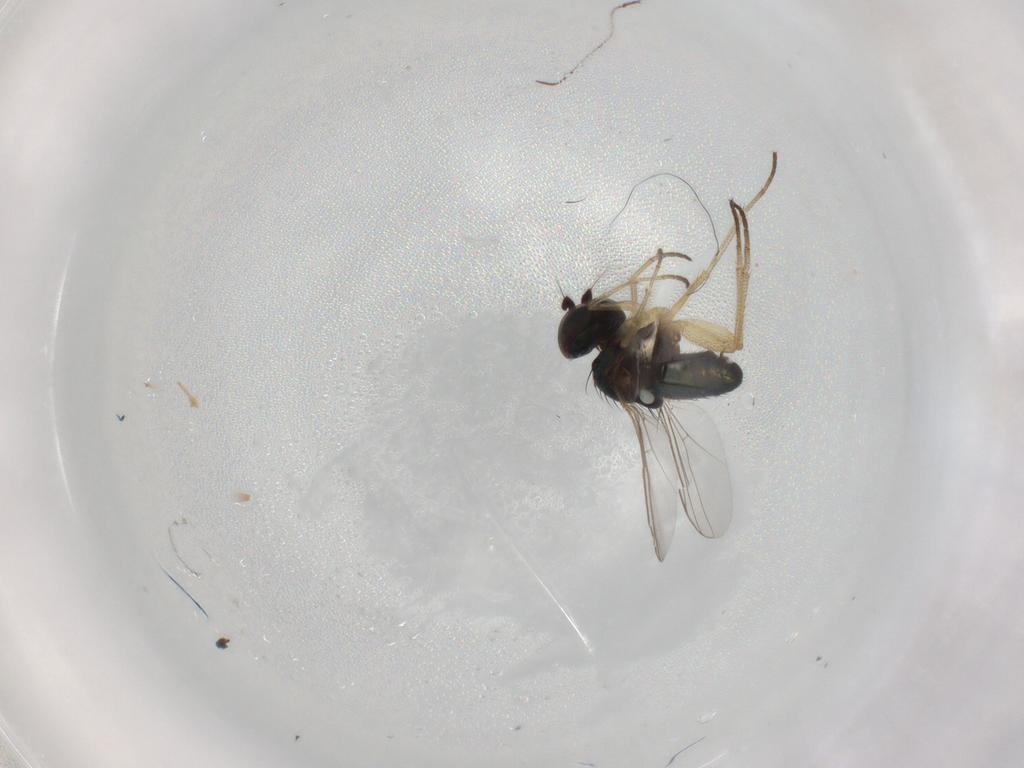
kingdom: Animalia
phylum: Arthropoda
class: Insecta
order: Diptera
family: Dolichopodidae
